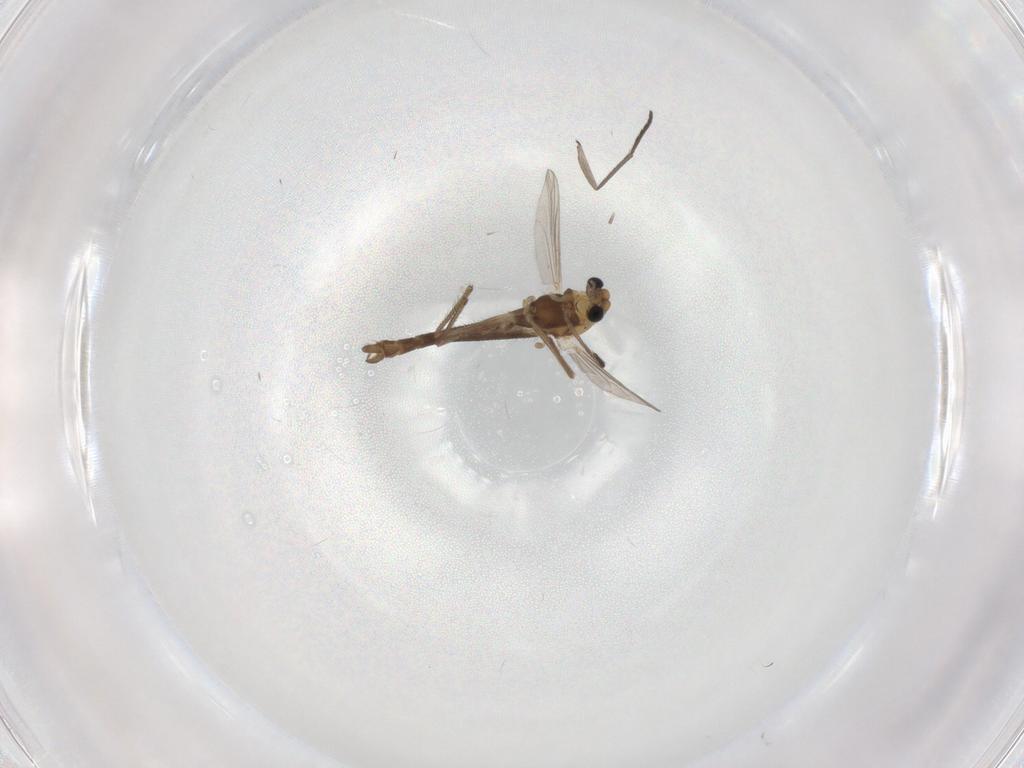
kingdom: Animalia
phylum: Arthropoda
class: Insecta
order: Diptera
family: Chironomidae
